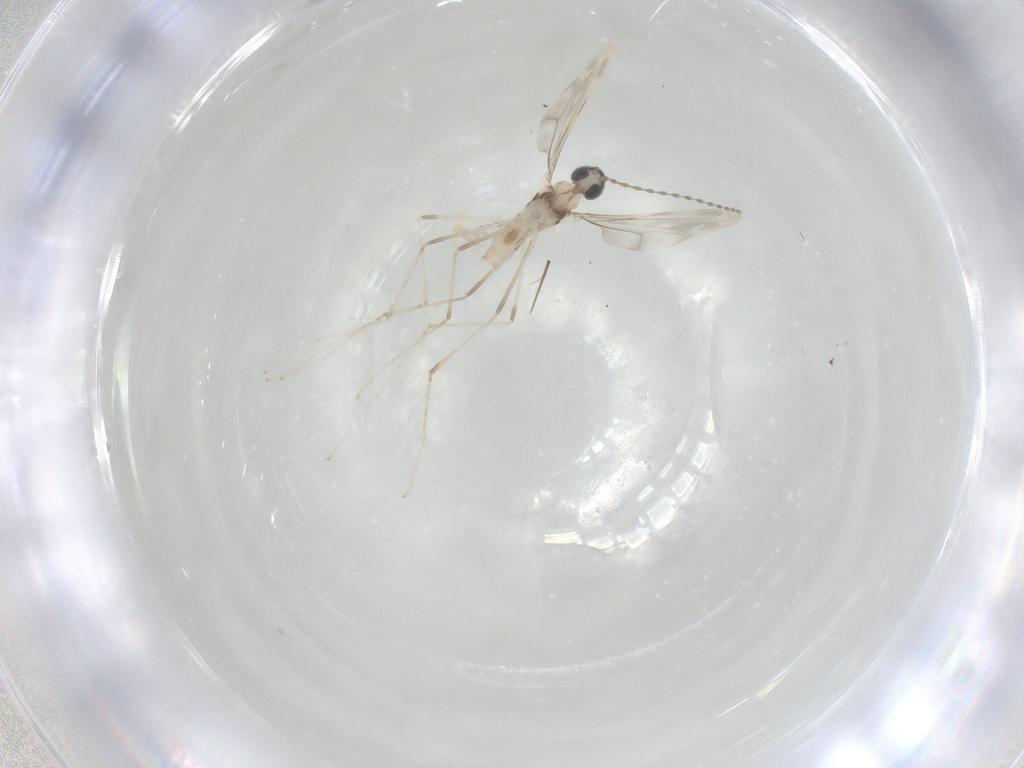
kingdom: Animalia
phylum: Arthropoda
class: Insecta
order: Diptera
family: Cecidomyiidae
